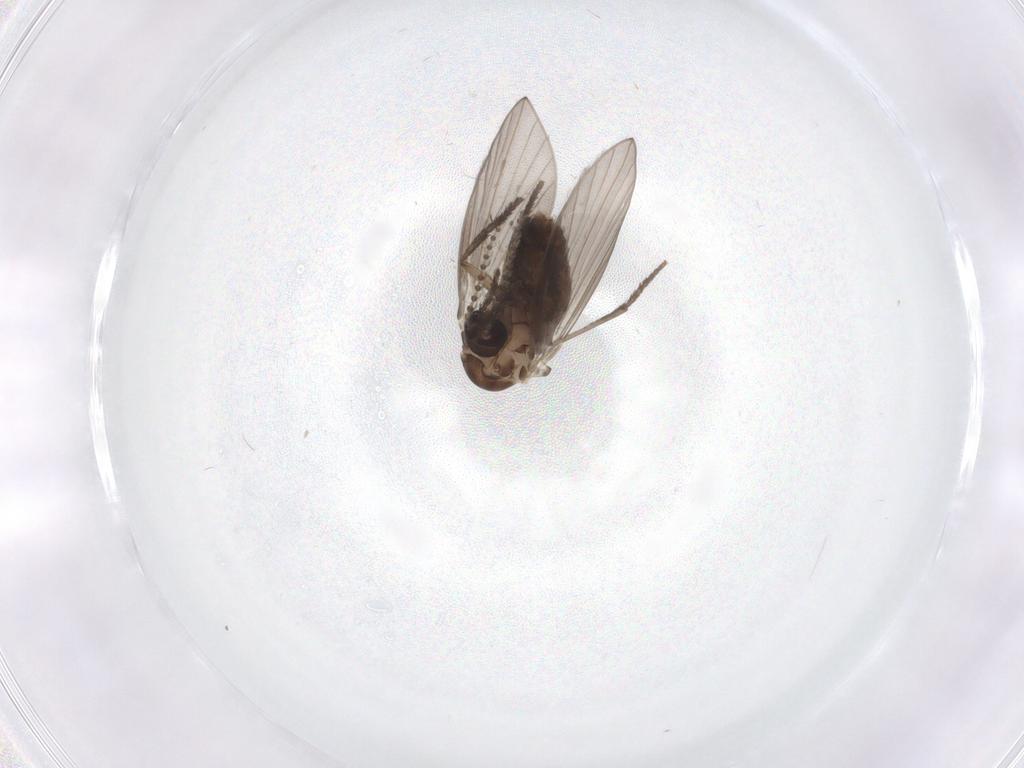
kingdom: Animalia
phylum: Arthropoda
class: Insecta
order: Diptera
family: Psychodidae
